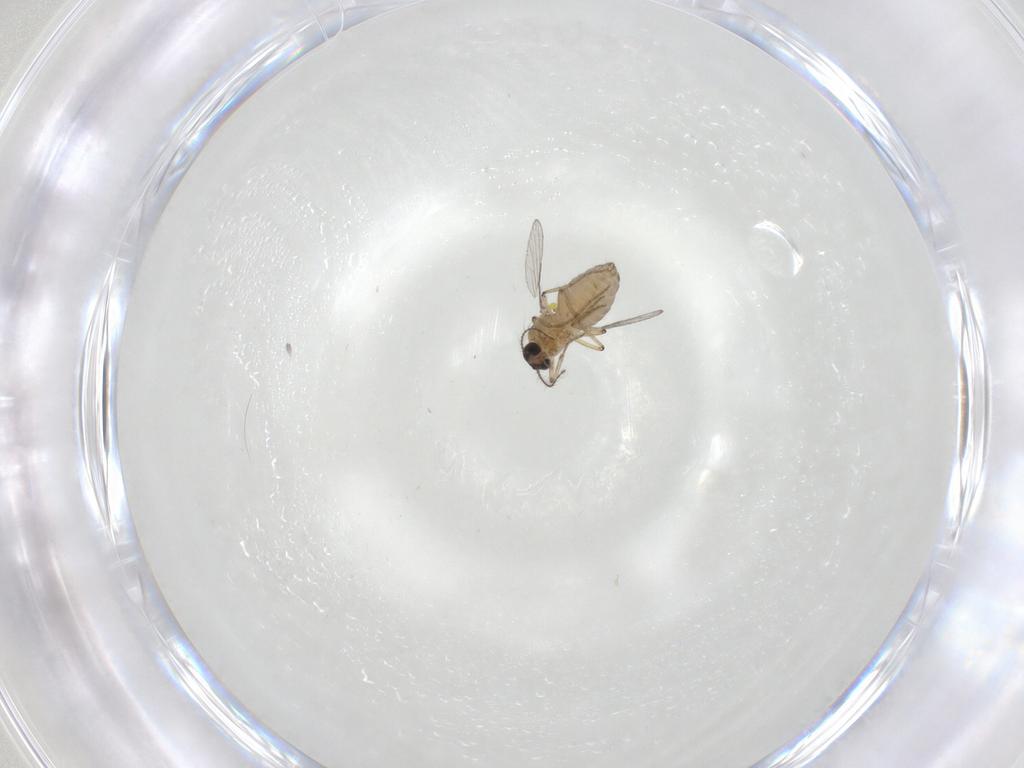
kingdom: Animalia
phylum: Arthropoda
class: Insecta
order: Diptera
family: Ceratopogonidae
